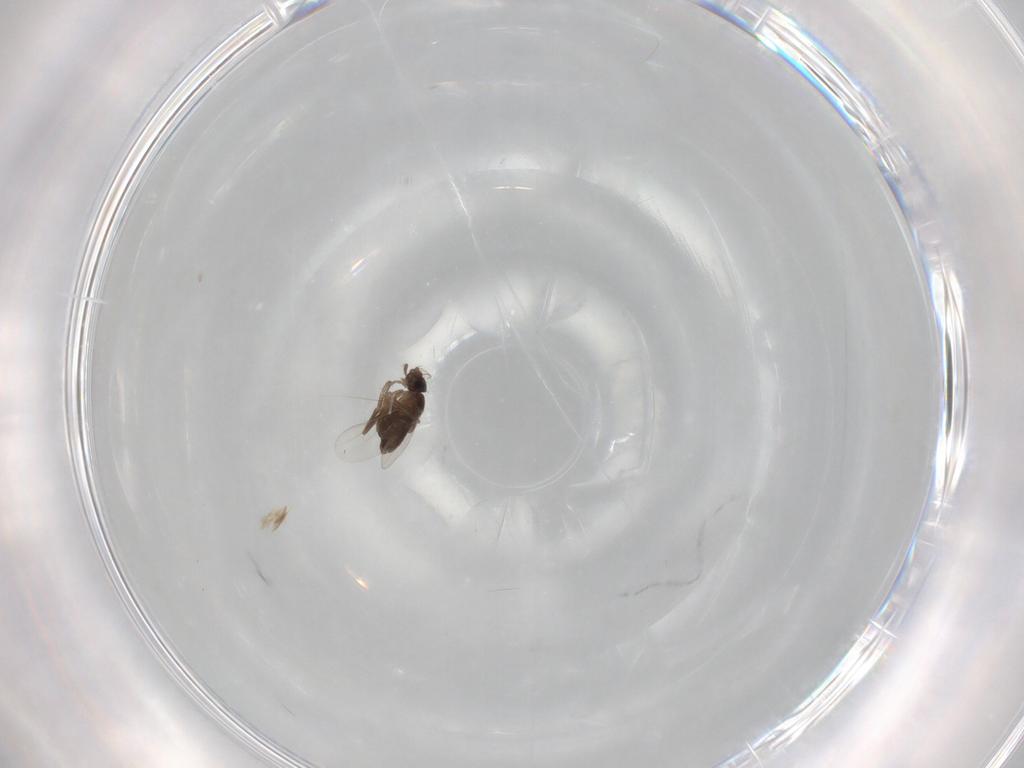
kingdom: Animalia
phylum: Arthropoda
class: Insecta
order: Diptera
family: Phoridae
